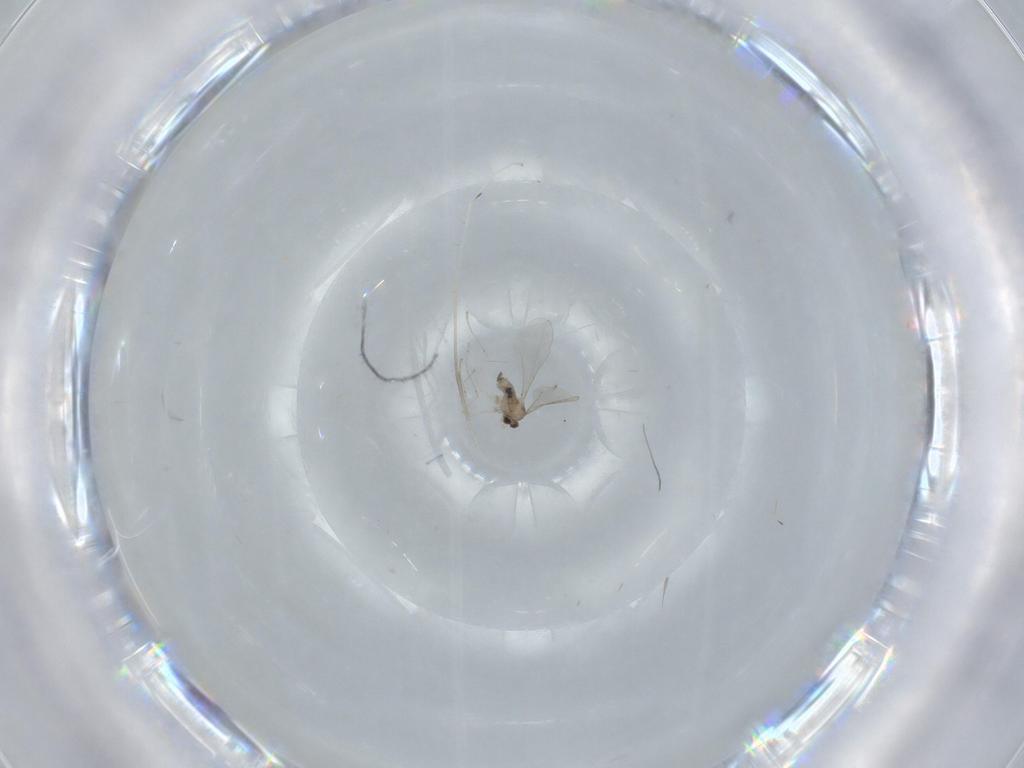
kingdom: Animalia
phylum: Arthropoda
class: Insecta
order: Diptera
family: Cecidomyiidae
